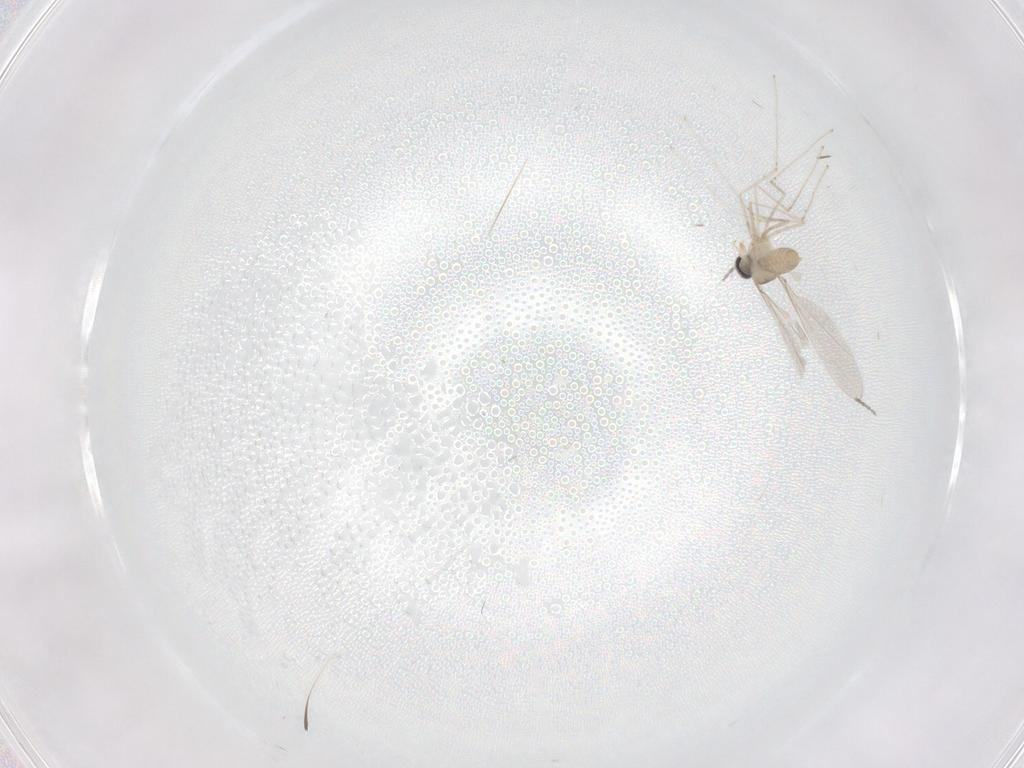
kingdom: Animalia
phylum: Arthropoda
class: Insecta
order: Diptera
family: Cecidomyiidae
